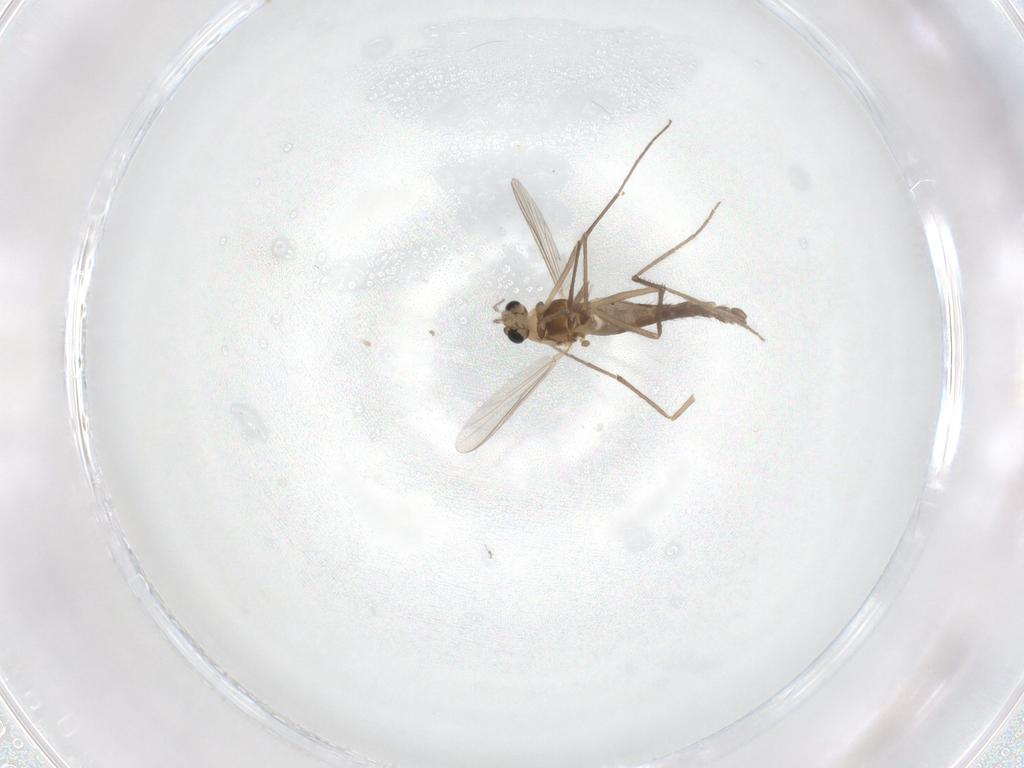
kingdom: Animalia
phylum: Arthropoda
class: Insecta
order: Diptera
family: Chironomidae
